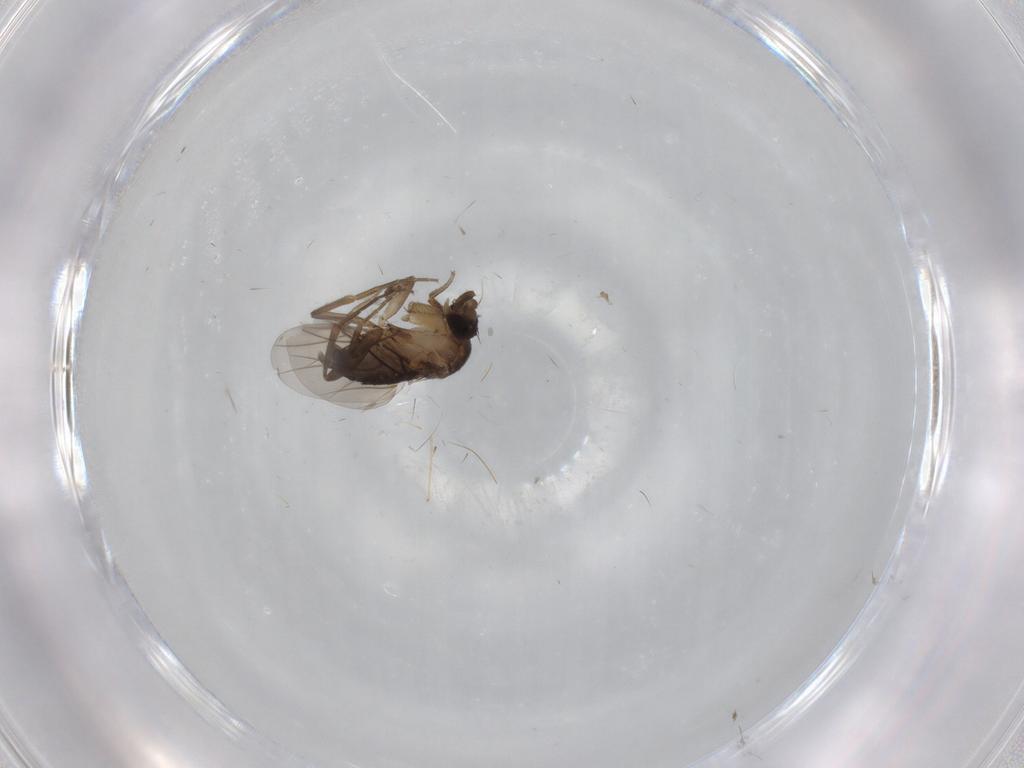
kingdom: Animalia
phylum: Arthropoda
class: Insecta
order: Diptera
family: Phoridae
